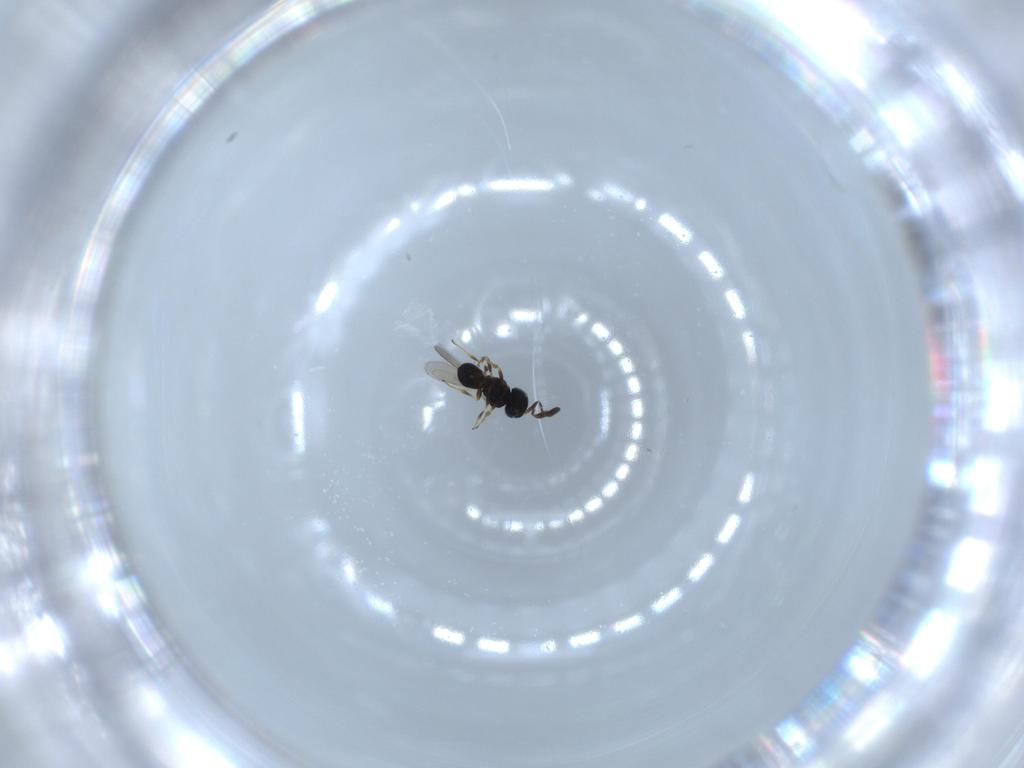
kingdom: Animalia
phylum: Arthropoda
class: Insecta
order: Hymenoptera
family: Scelionidae
